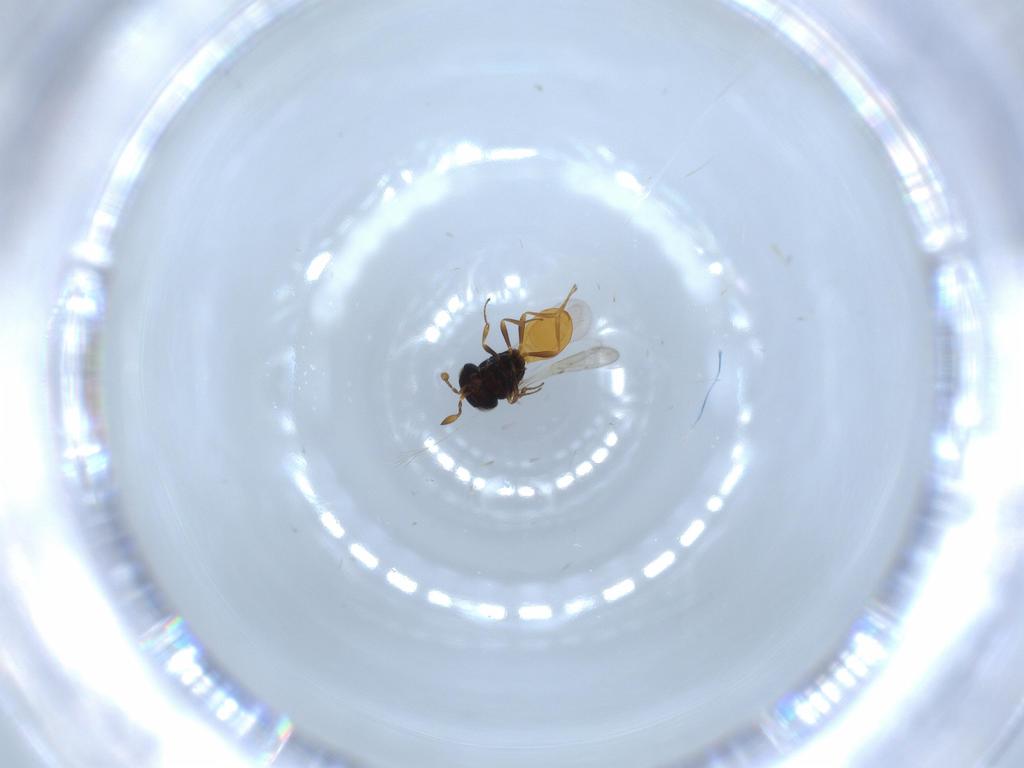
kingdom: Animalia
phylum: Arthropoda
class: Insecta
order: Hymenoptera
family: Scelionidae
